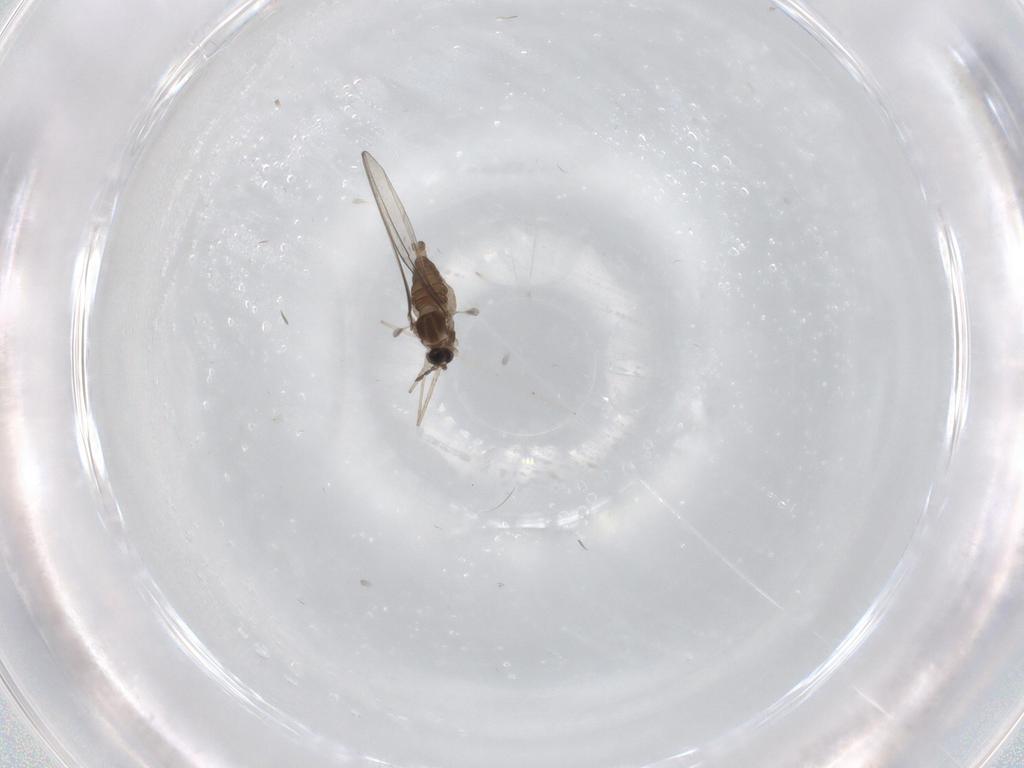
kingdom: Animalia
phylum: Arthropoda
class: Insecta
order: Diptera
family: Cecidomyiidae
